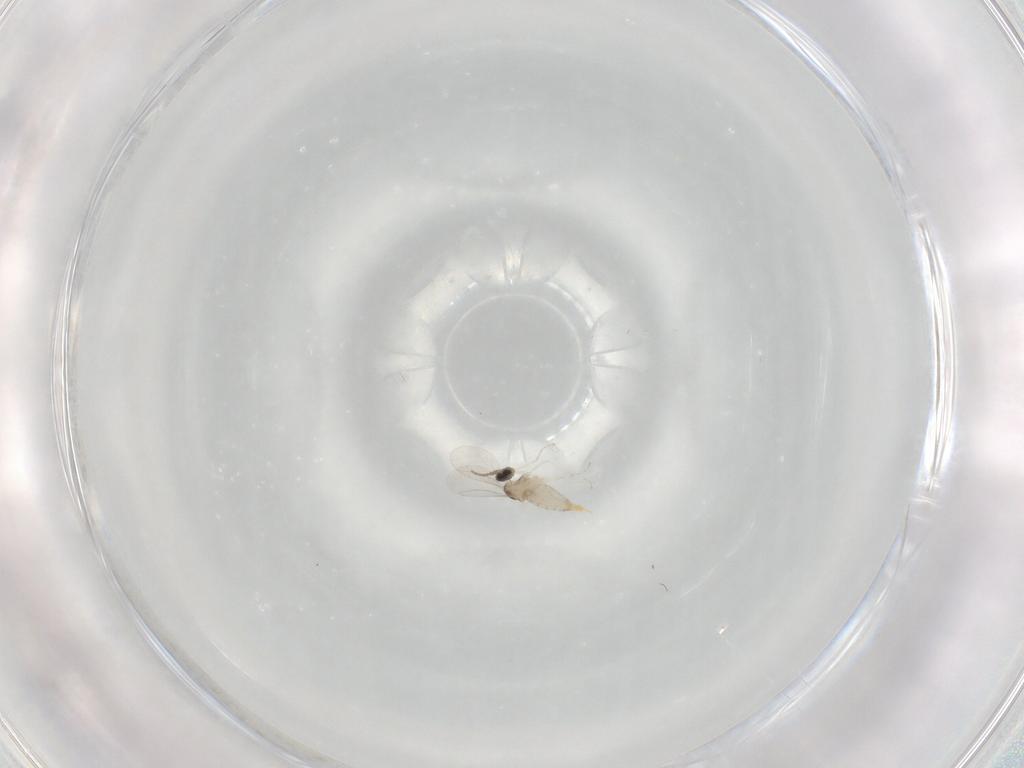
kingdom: Animalia
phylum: Arthropoda
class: Insecta
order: Diptera
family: Cecidomyiidae
